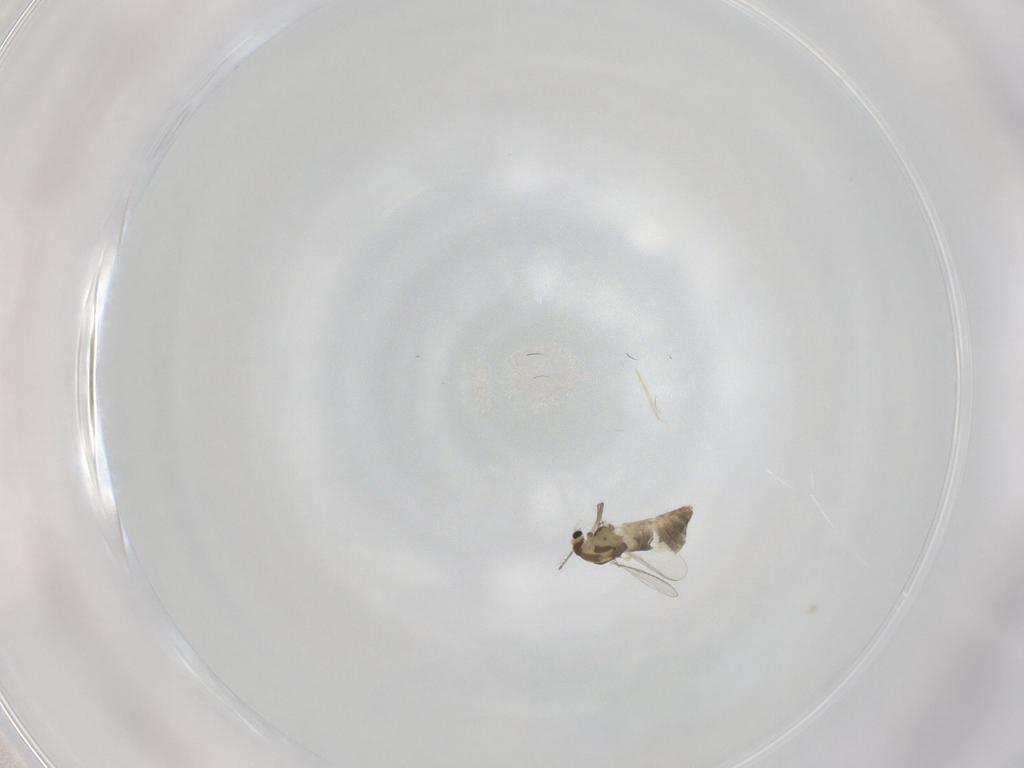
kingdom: Animalia
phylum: Arthropoda
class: Insecta
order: Diptera
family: Chironomidae
